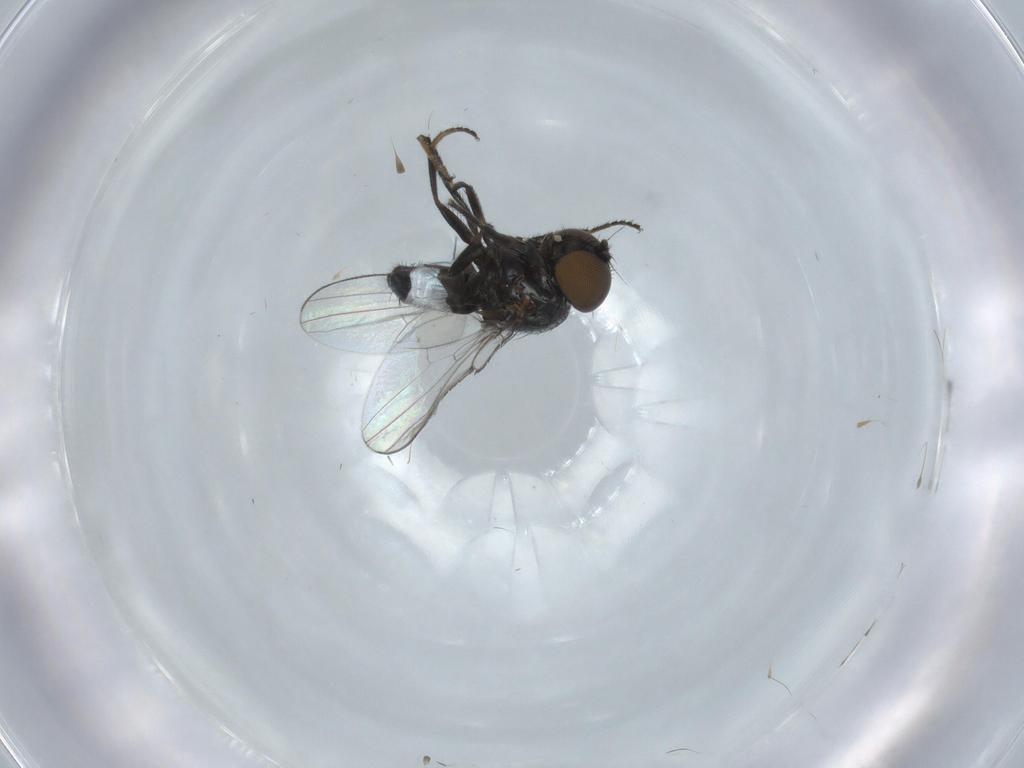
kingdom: Animalia
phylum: Arthropoda
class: Insecta
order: Diptera
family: Milichiidae
